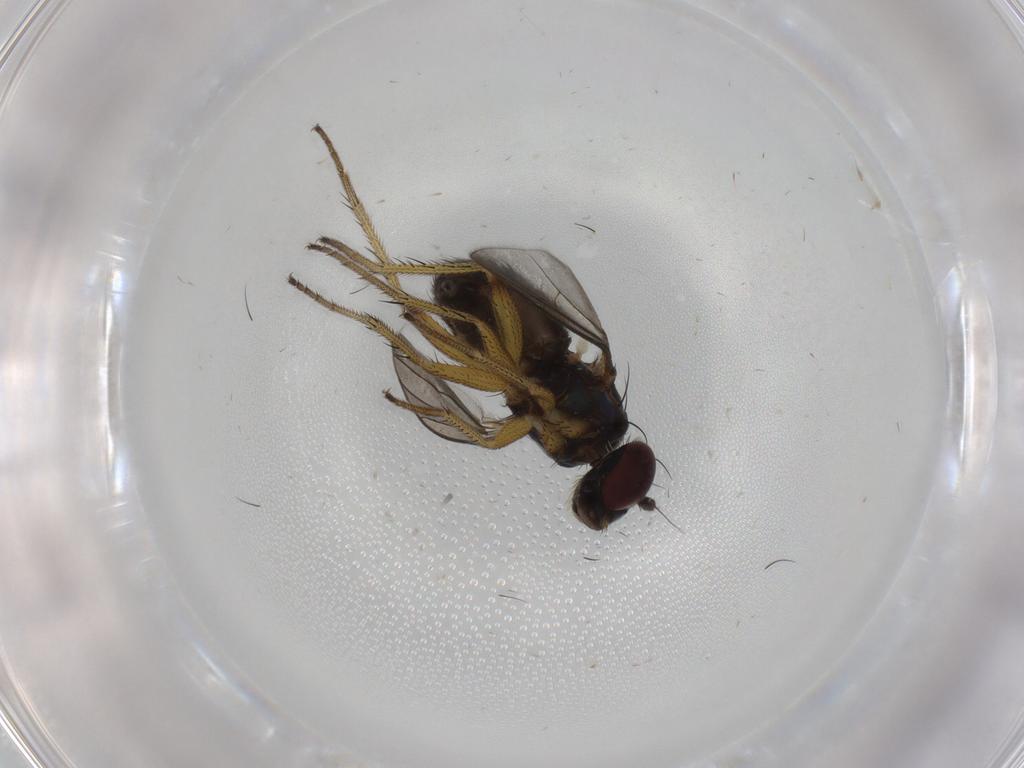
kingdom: Animalia
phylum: Arthropoda
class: Insecta
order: Diptera
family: Dolichopodidae
